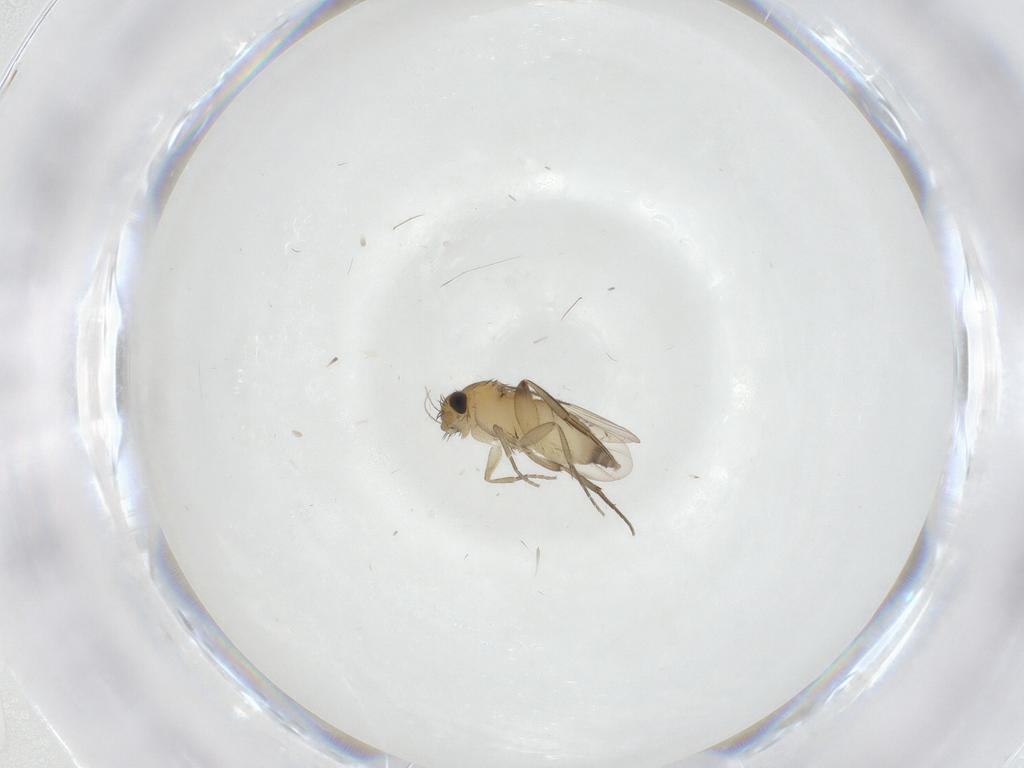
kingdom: Animalia
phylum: Arthropoda
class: Insecta
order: Diptera
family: Phoridae
